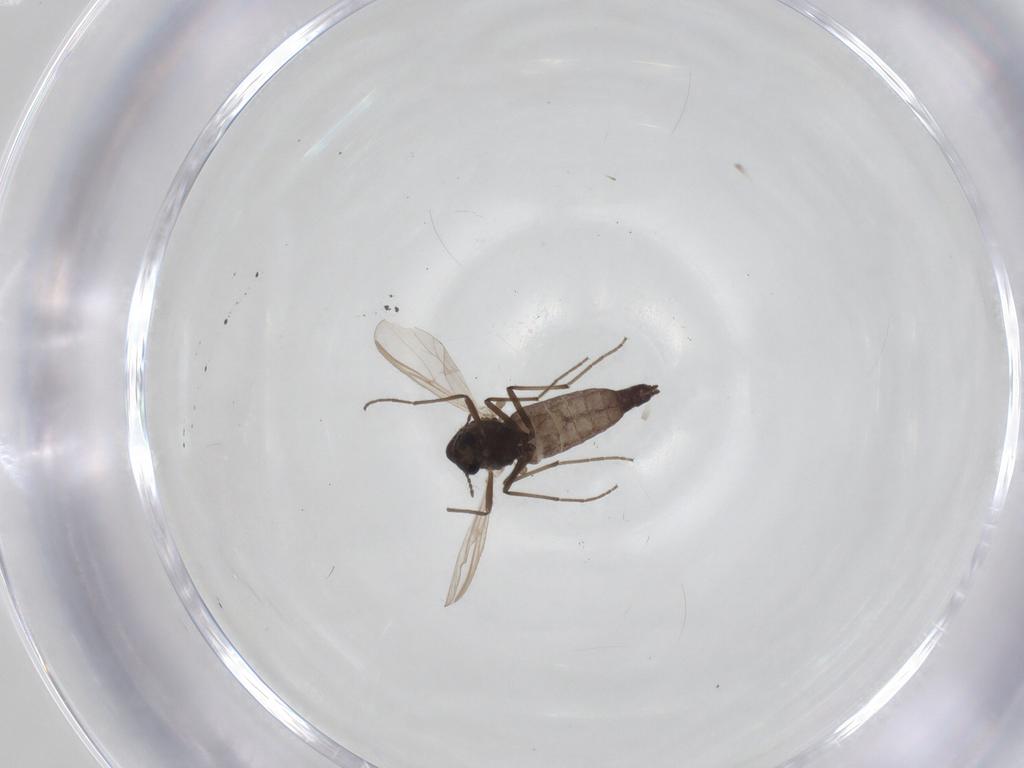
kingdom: Animalia
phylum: Arthropoda
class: Insecta
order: Diptera
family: Chironomidae
